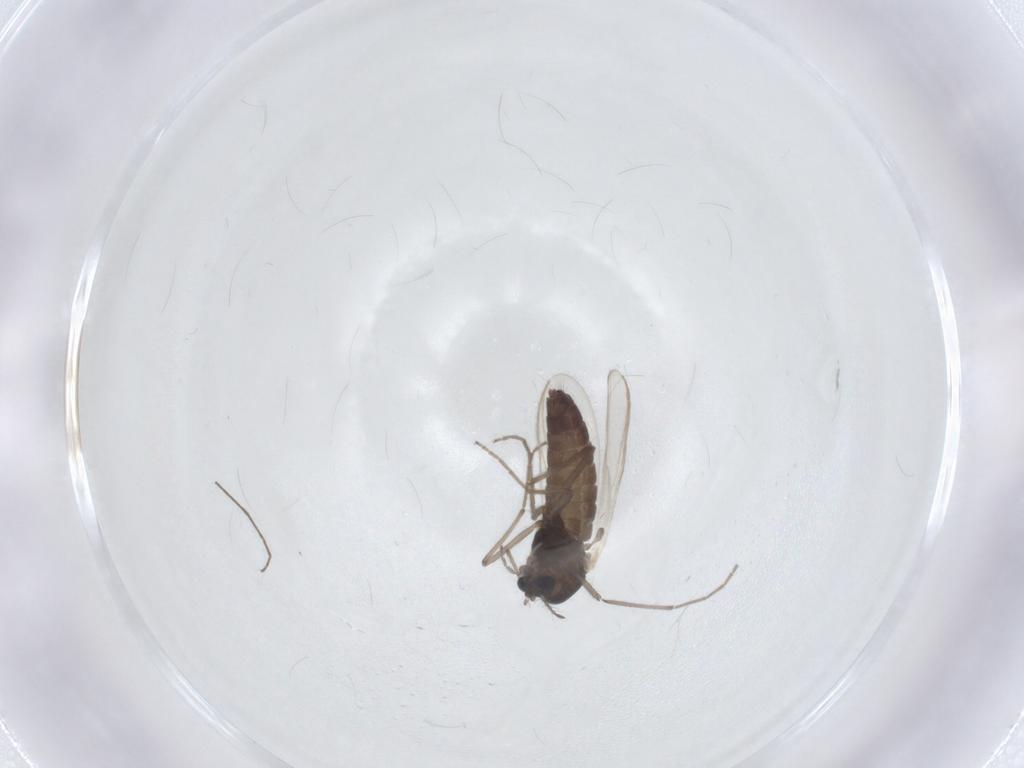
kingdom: Animalia
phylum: Arthropoda
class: Insecta
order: Diptera
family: Chironomidae
